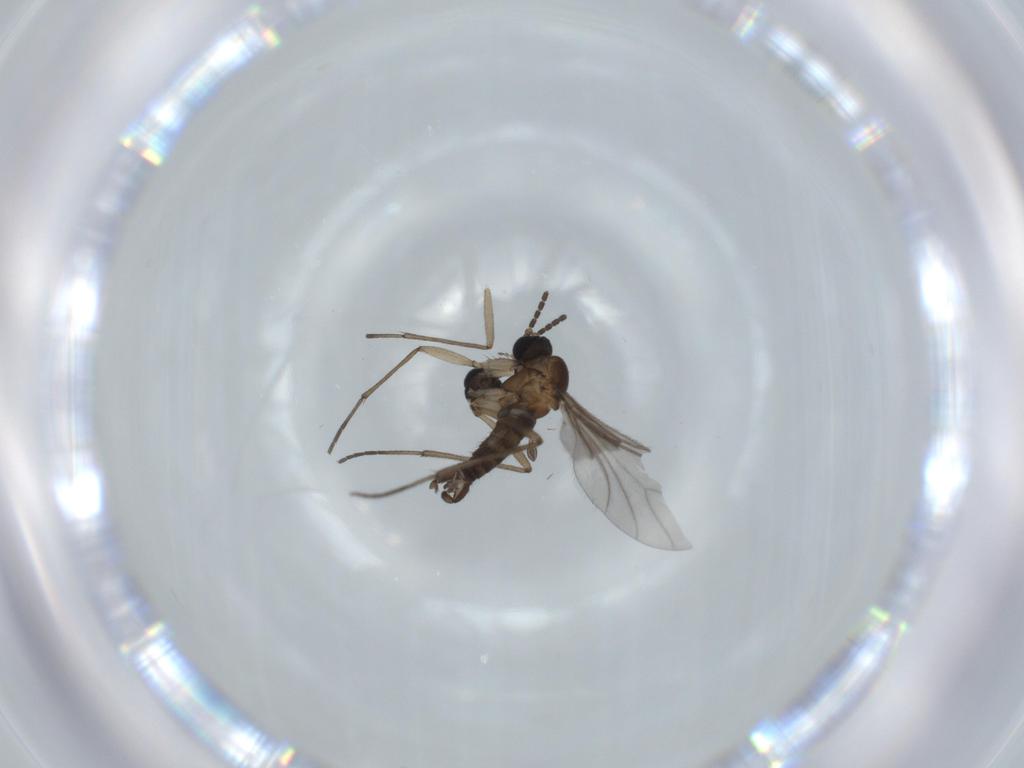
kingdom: Animalia
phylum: Arthropoda
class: Insecta
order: Diptera
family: Sciaridae
